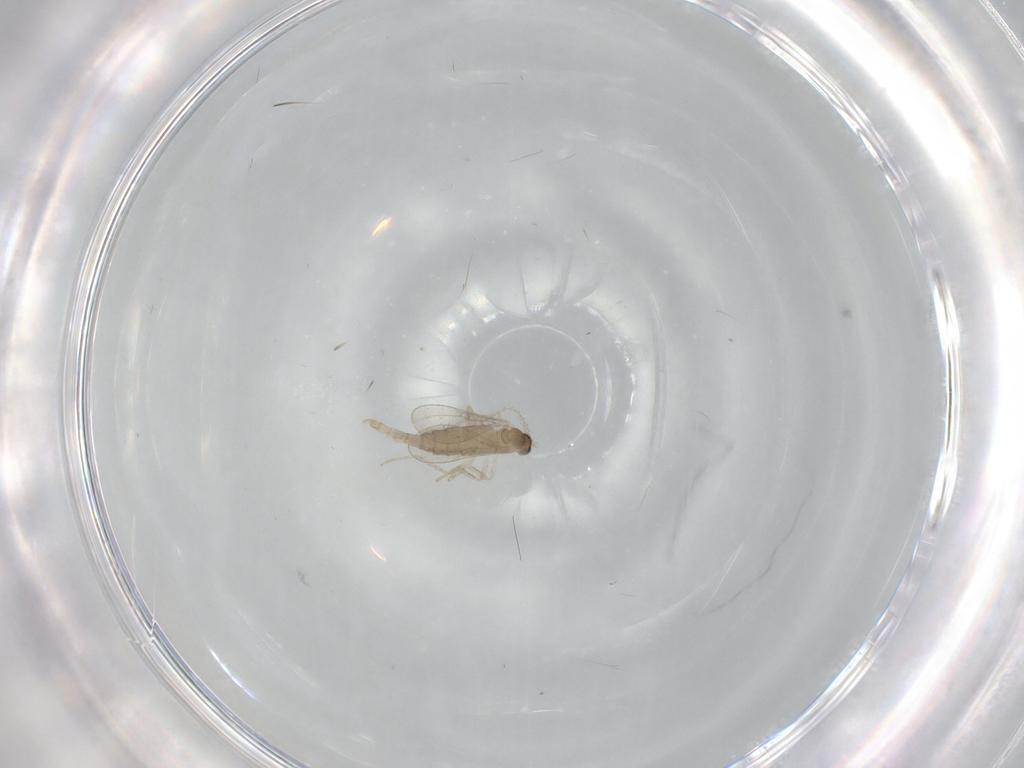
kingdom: Animalia
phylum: Arthropoda
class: Insecta
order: Diptera
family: Cecidomyiidae
